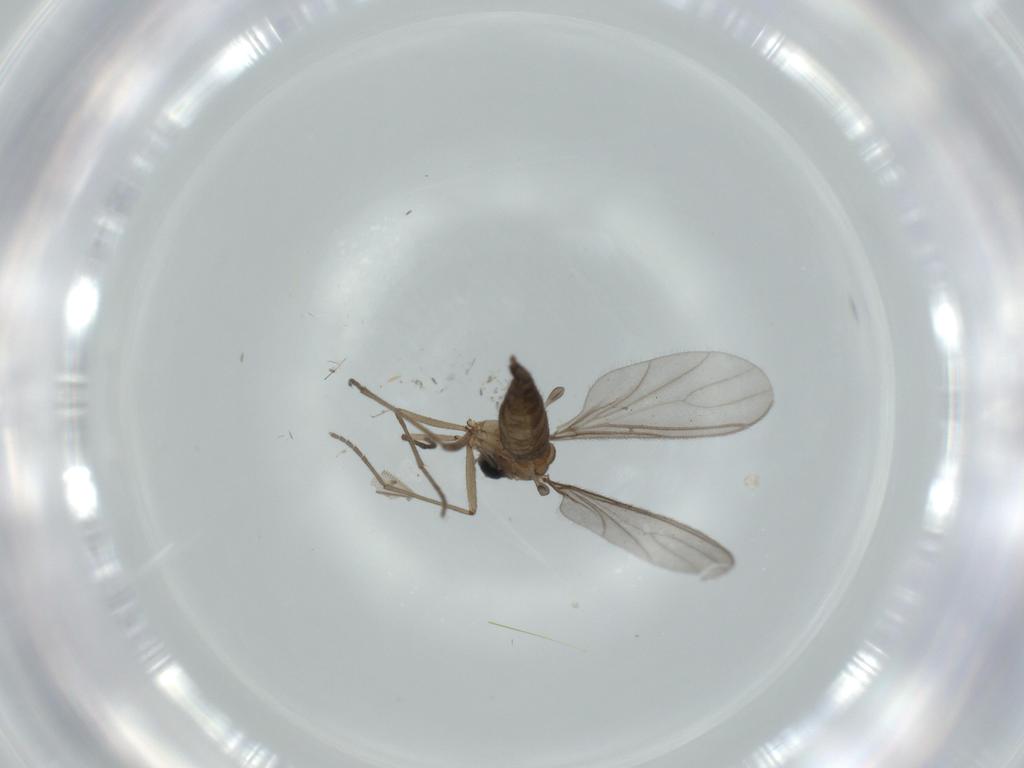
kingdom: Animalia
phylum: Arthropoda
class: Insecta
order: Diptera
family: Sciaridae
